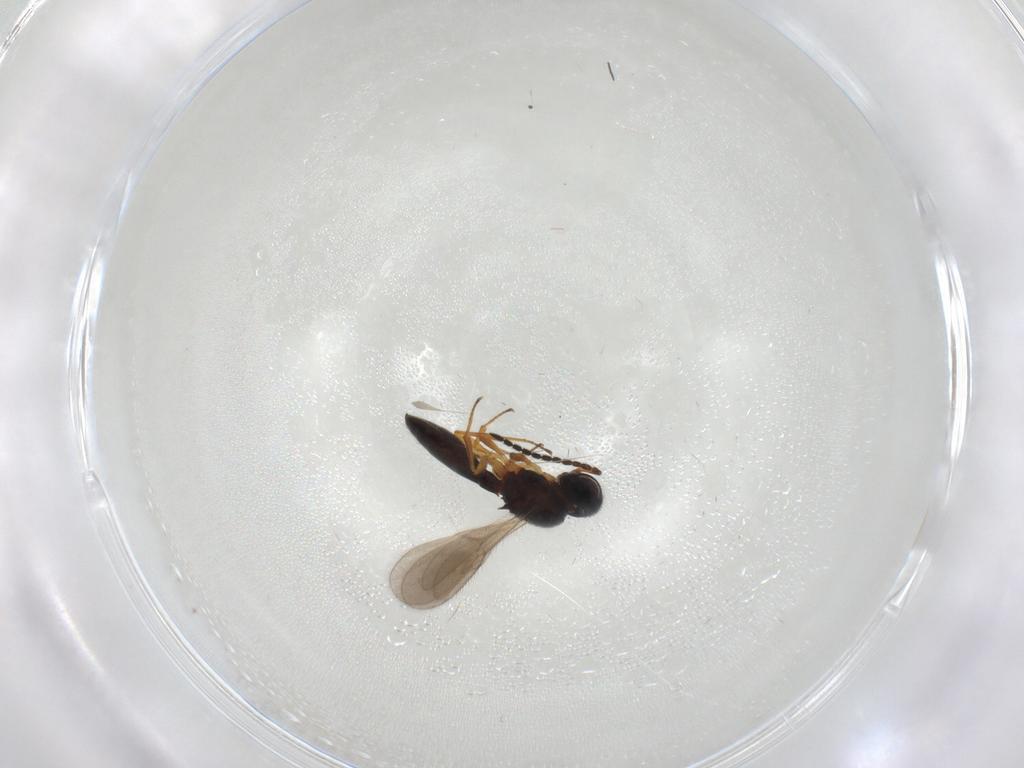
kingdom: Animalia
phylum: Arthropoda
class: Insecta
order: Hymenoptera
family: Scelionidae
